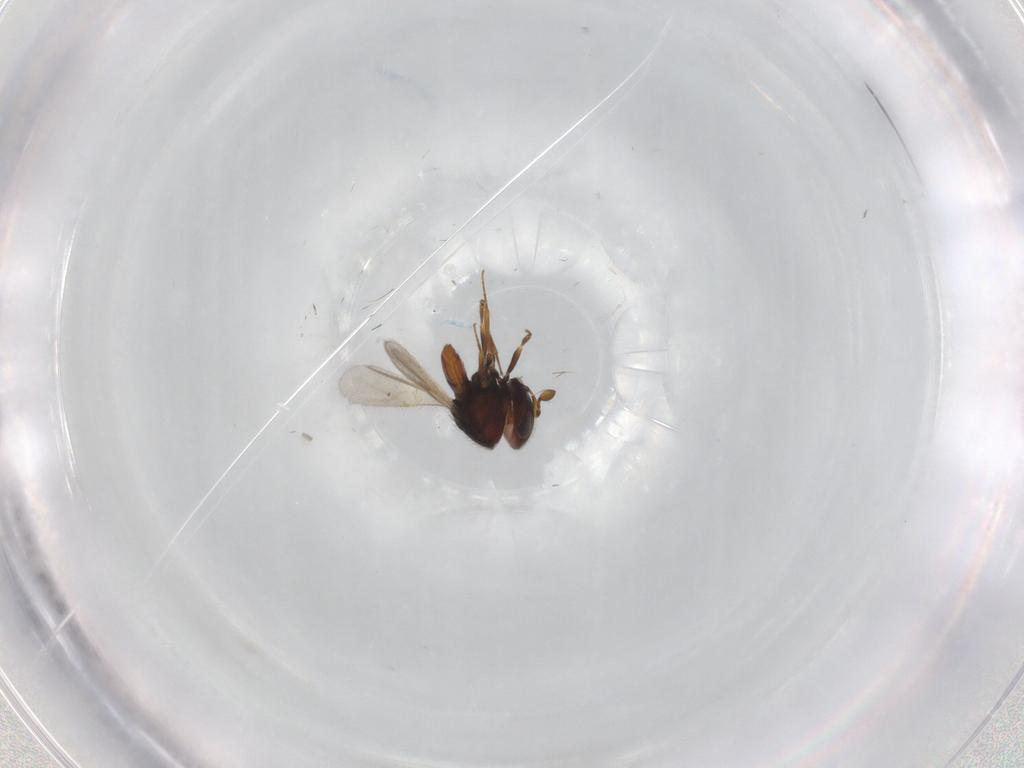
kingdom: Animalia
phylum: Arthropoda
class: Insecta
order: Hymenoptera
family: Scelionidae
